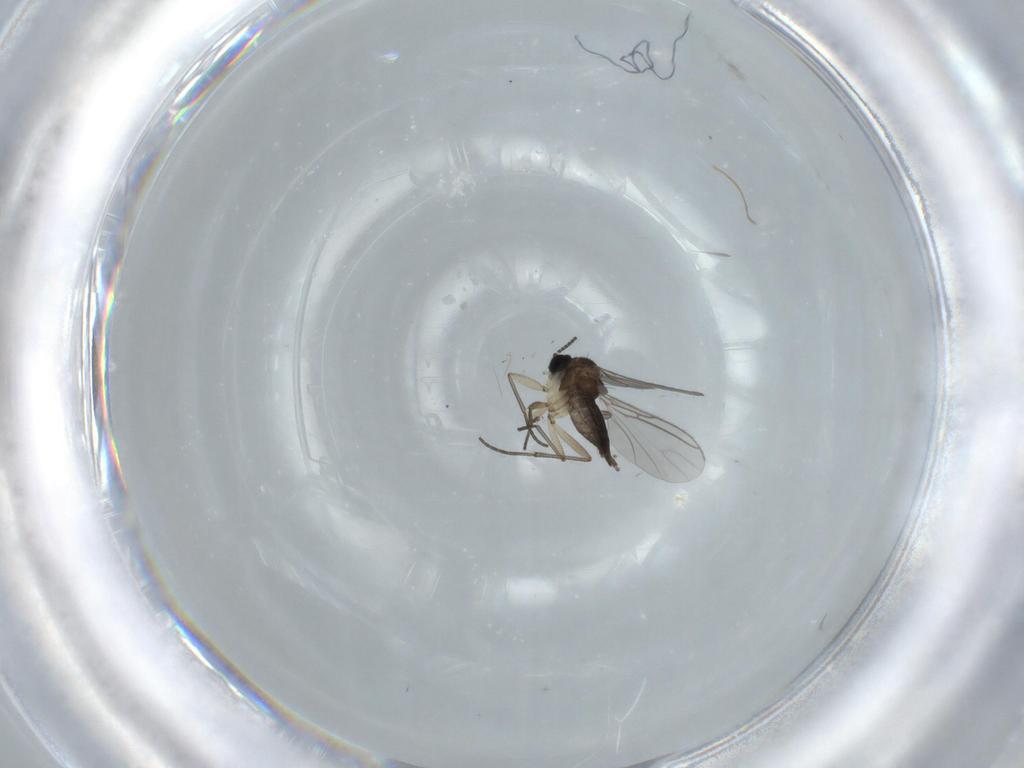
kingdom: Animalia
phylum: Arthropoda
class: Insecta
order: Diptera
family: Sciaridae
